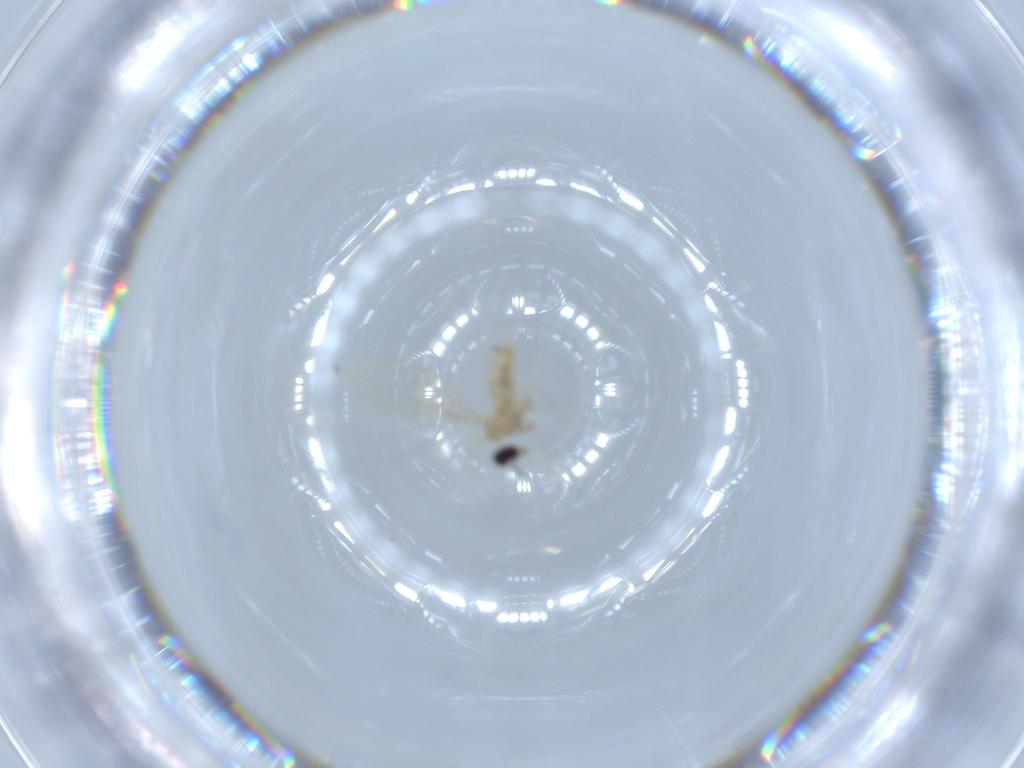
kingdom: Animalia
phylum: Arthropoda
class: Insecta
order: Diptera
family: Cecidomyiidae
